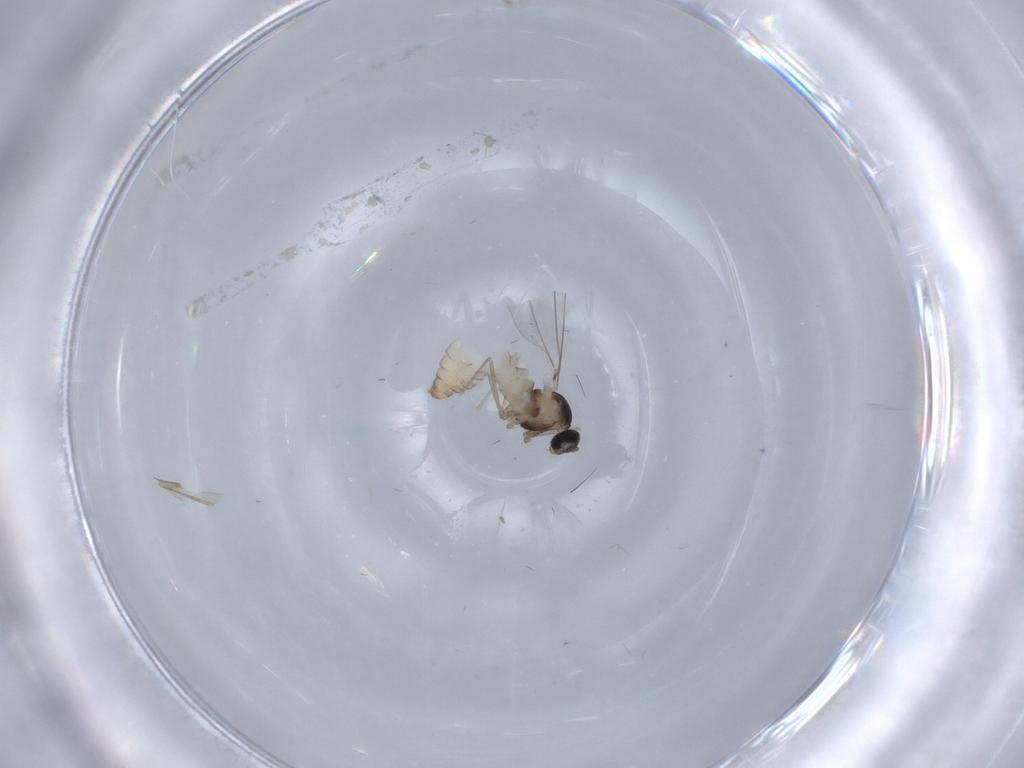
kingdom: Animalia
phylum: Arthropoda
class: Insecta
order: Diptera
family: Cecidomyiidae
